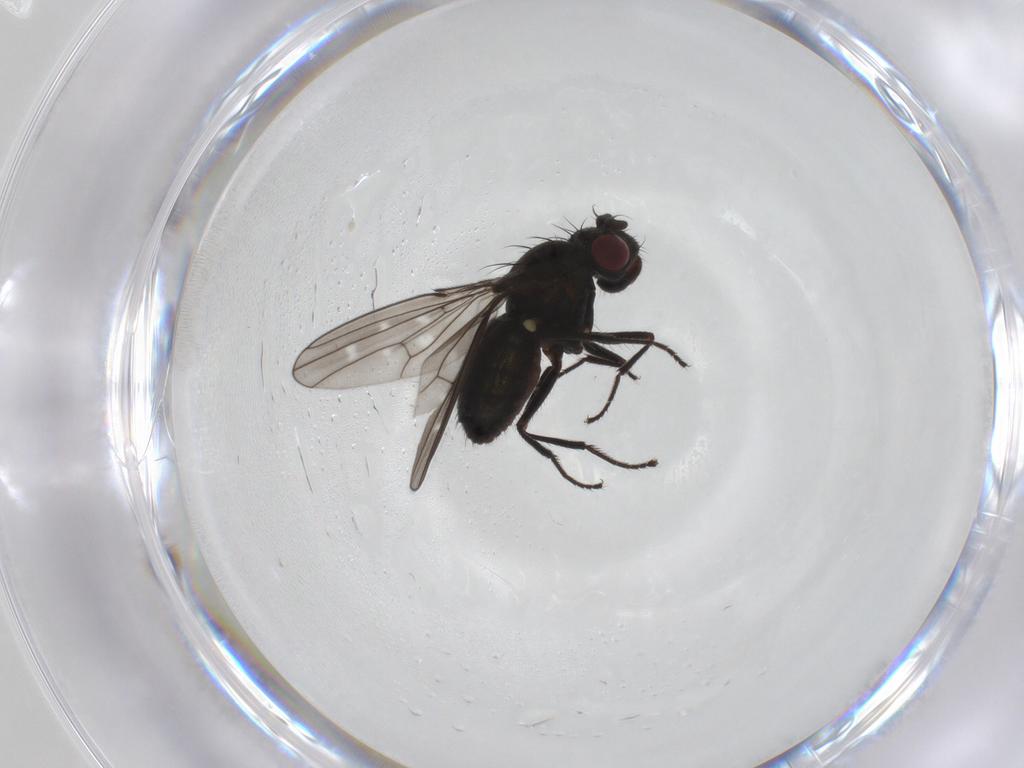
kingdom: Animalia
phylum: Arthropoda
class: Insecta
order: Diptera
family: Ephydridae
